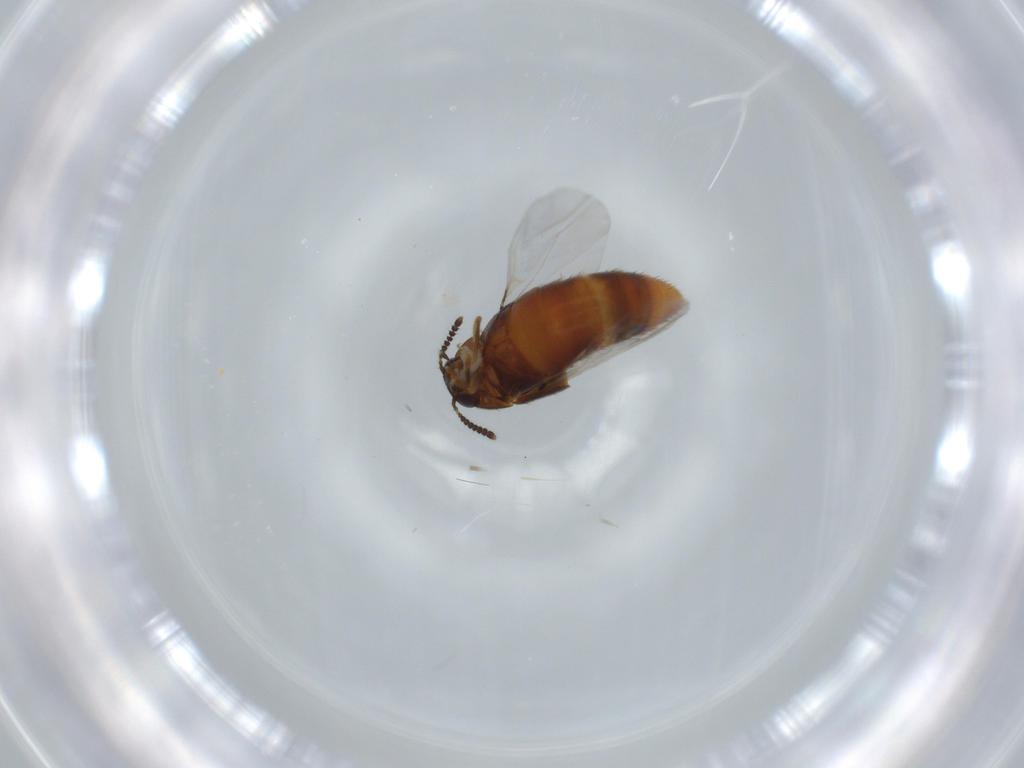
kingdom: Animalia
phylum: Arthropoda
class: Insecta
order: Coleoptera
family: Staphylinidae
